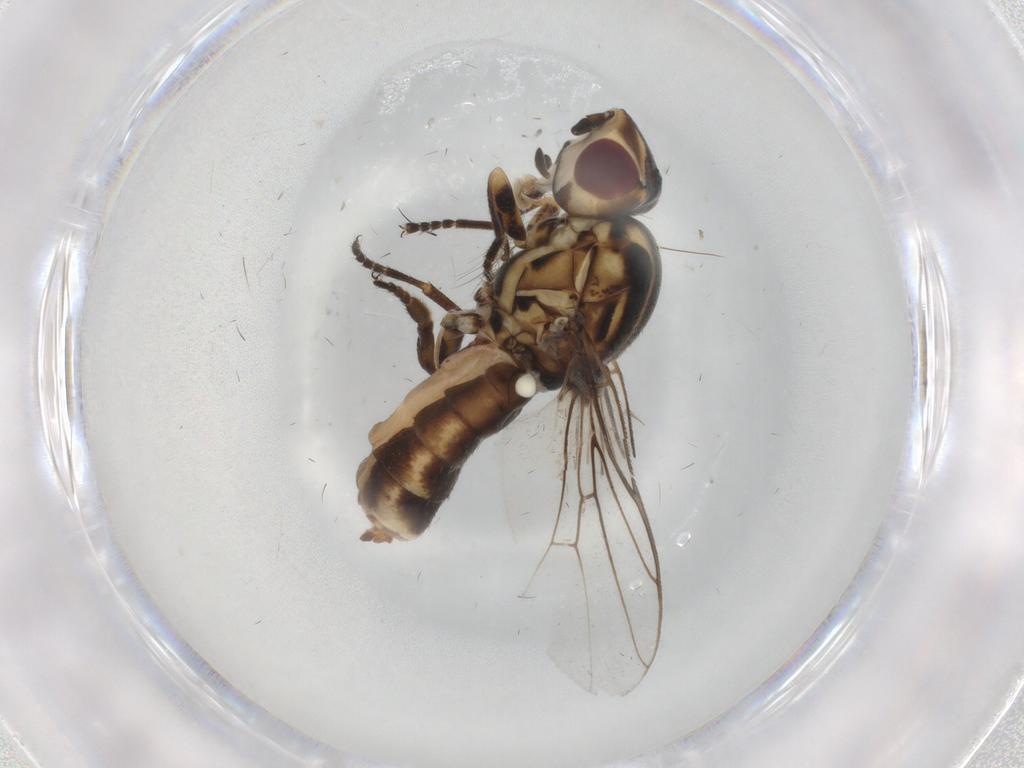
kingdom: Animalia
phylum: Arthropoda
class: Insecta
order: Diptera
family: Chloropidae
